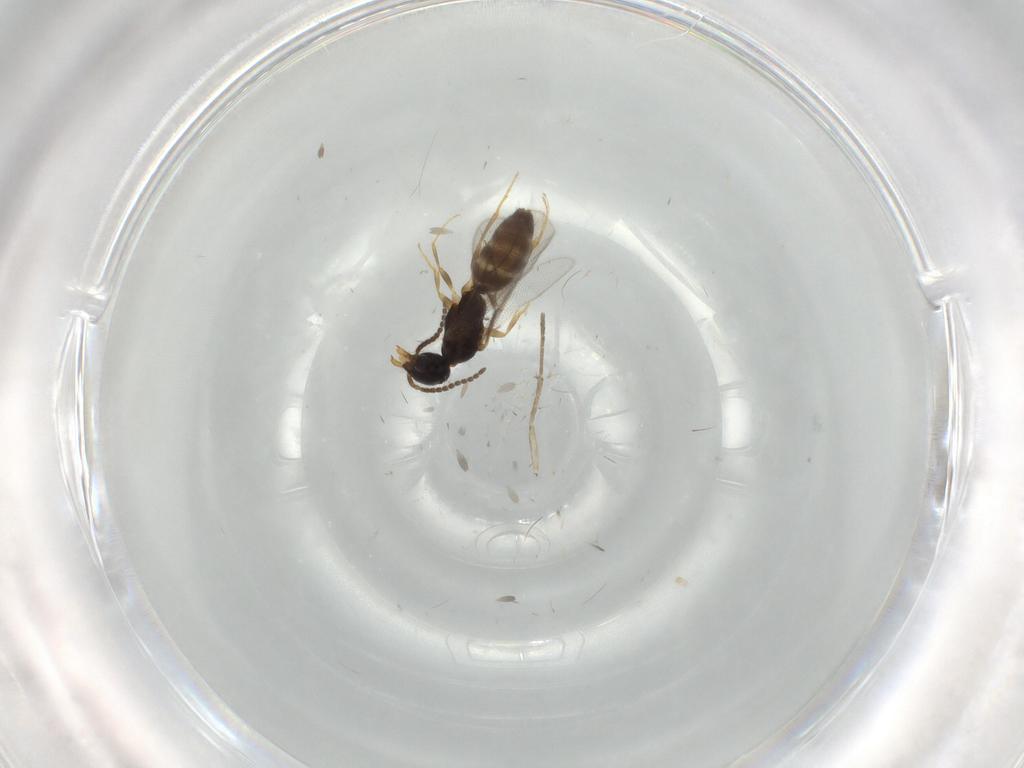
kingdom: Animalia
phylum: Arthropoda
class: Insecta
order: Hymenoptera
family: Bethylidae
